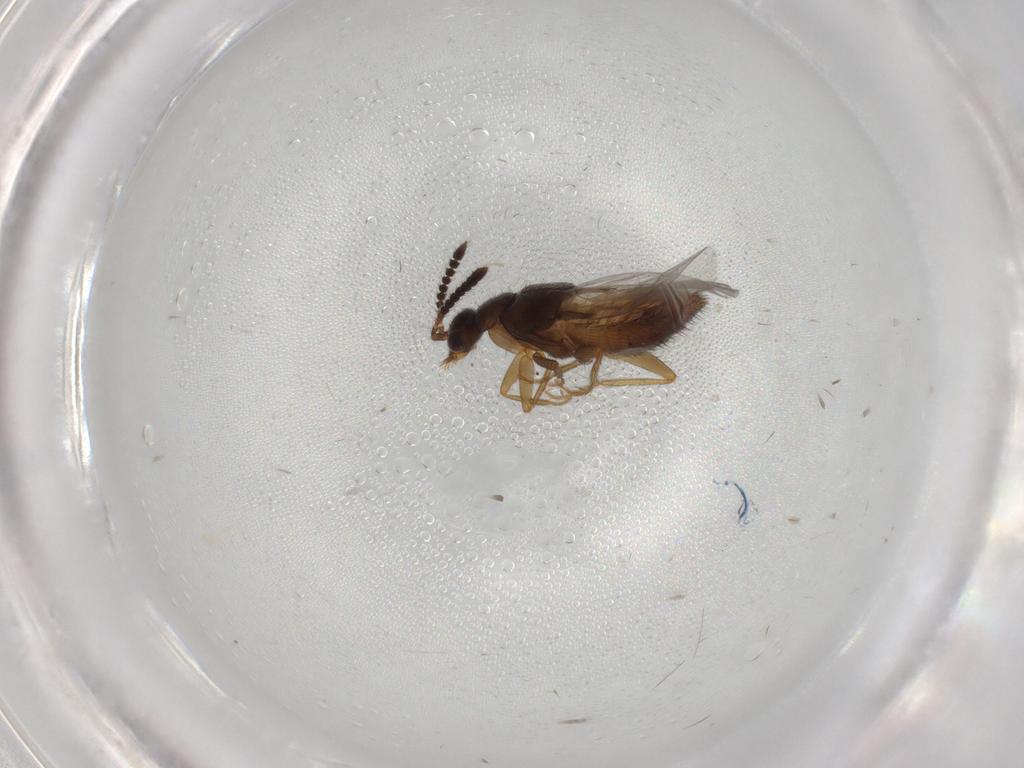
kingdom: Animalia
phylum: Arthropoda
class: Insecta
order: Coleoptera
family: Staphylinidae
